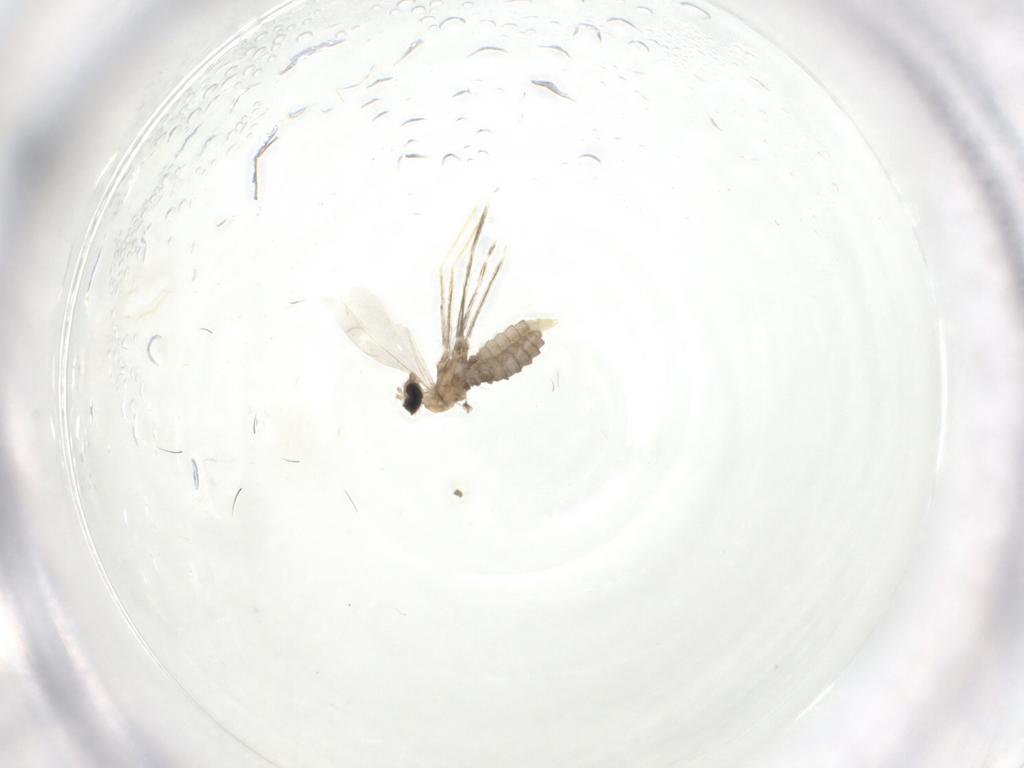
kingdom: Animalia
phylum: Arthropoda
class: Insecta
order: Diptera
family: Cecidomyiidae
